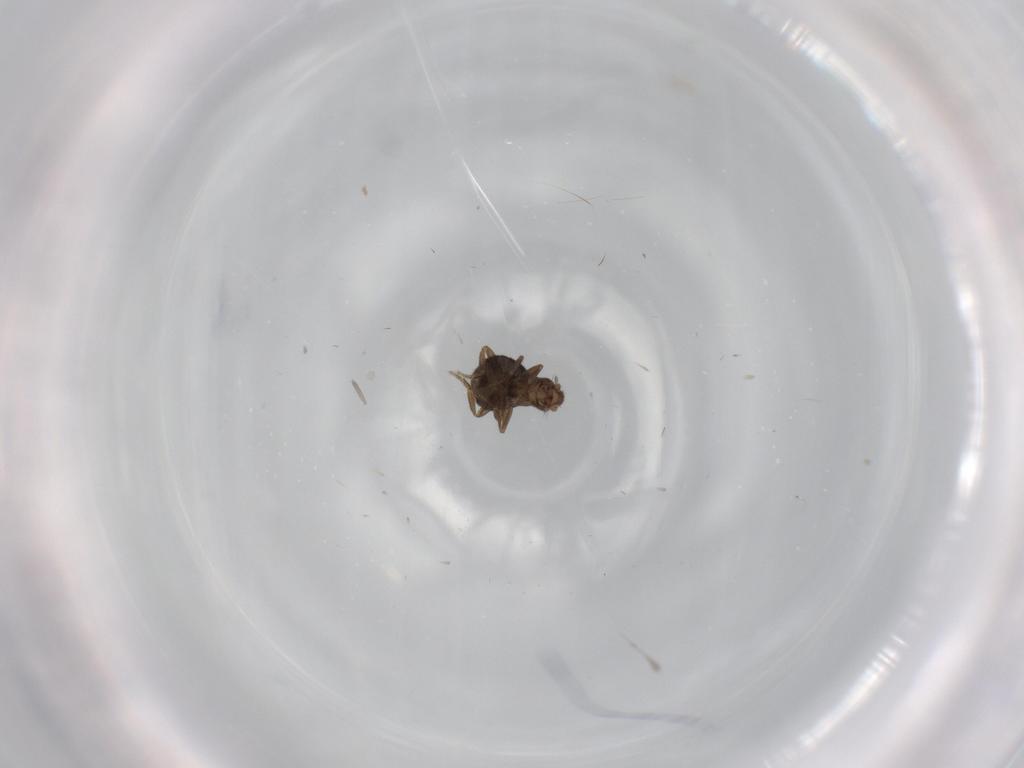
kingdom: Animalia
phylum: Arthropoda
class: Insecta
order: Diptera
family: Phoridae
